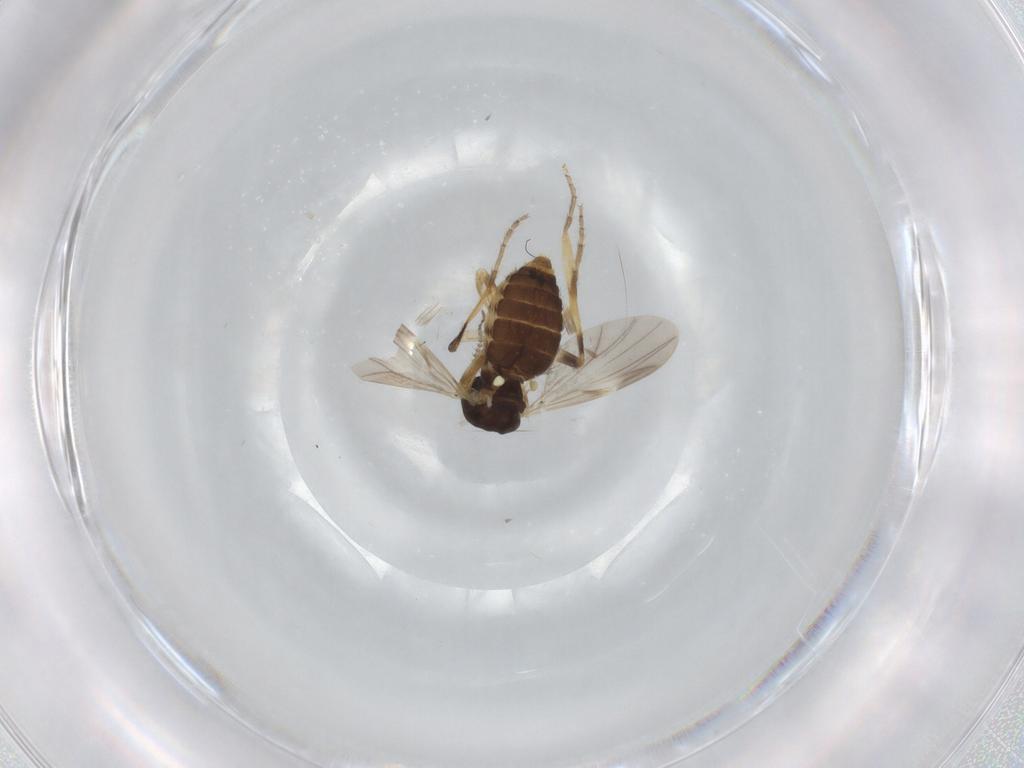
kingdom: Animalia
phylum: Arthropoda
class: Insecta
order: Diptera
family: Ceratopogonidae
